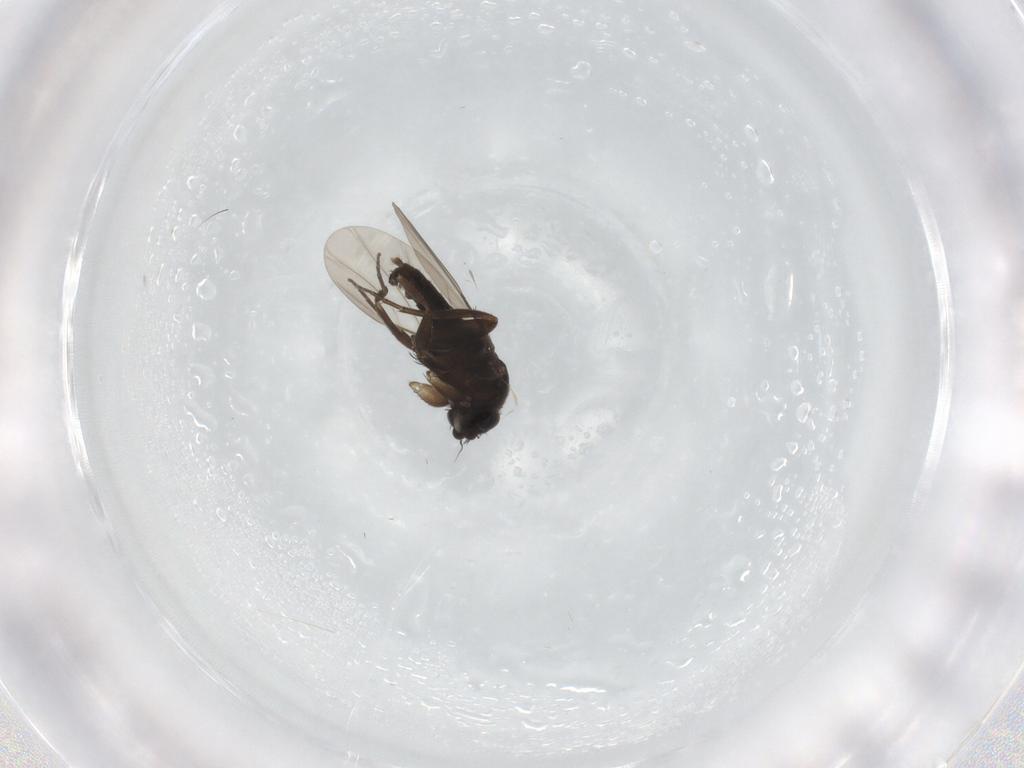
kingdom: Animalia
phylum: Arthropoda
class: Insecta
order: Diptera
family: Phoridae
